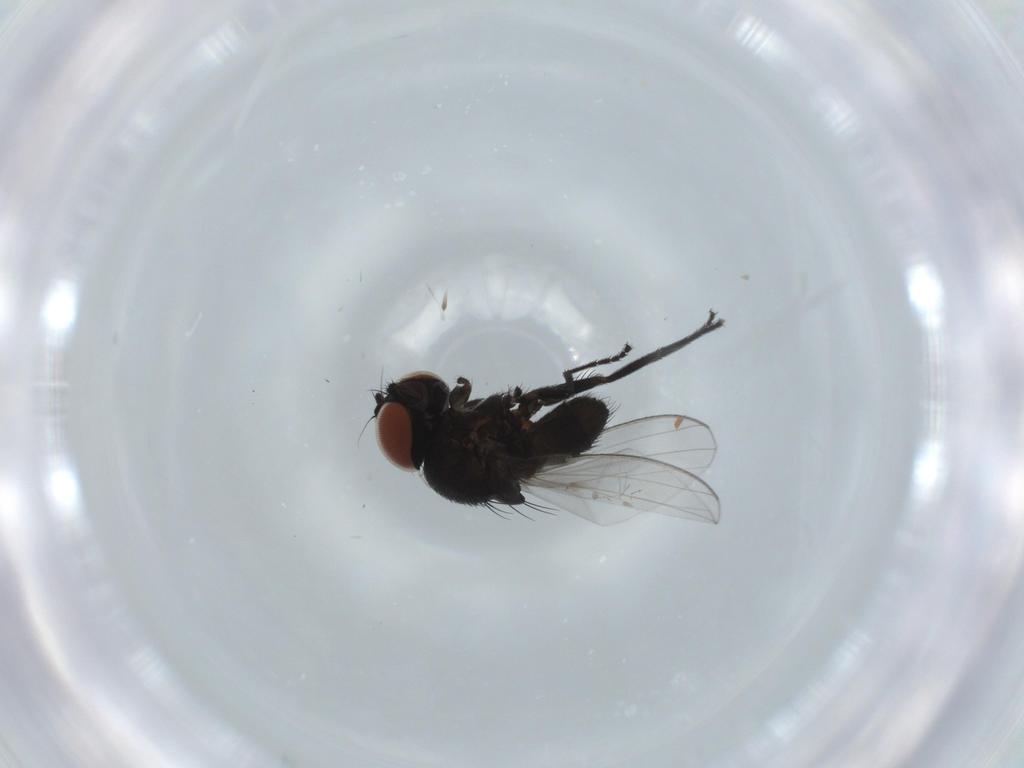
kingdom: Animalia
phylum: Arthropoda
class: Insecta
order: Diptera
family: Milichiidae
